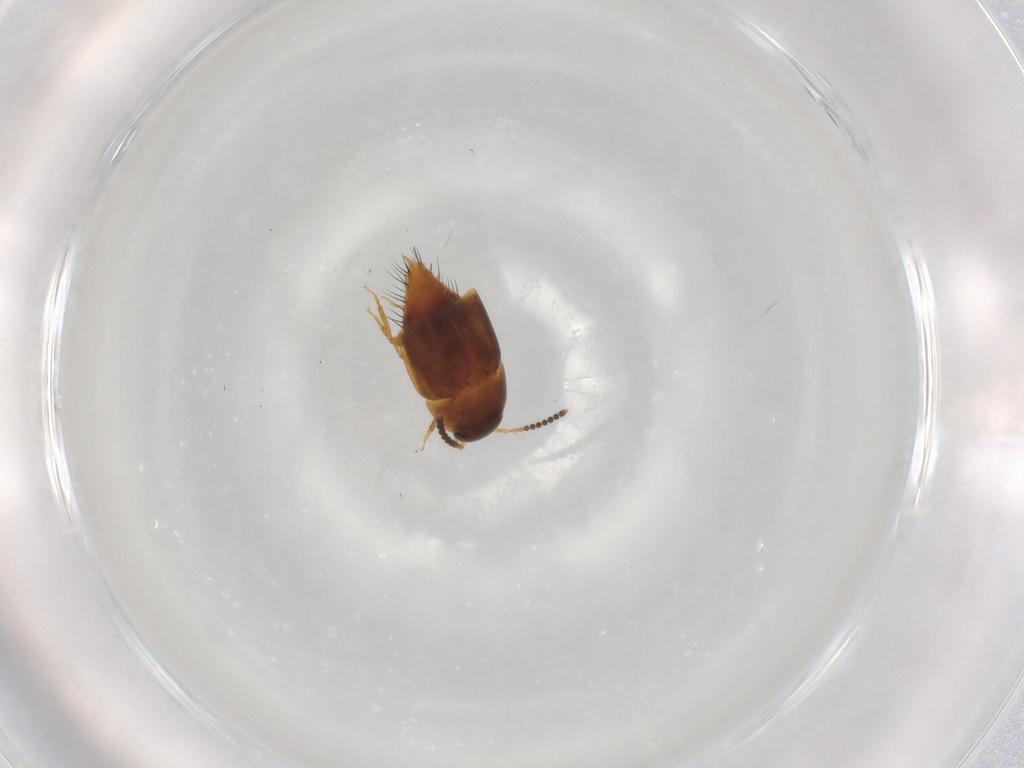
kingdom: Animalia
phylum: Arthropoda
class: Insecta
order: Coleoptera
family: Staphylinidae
